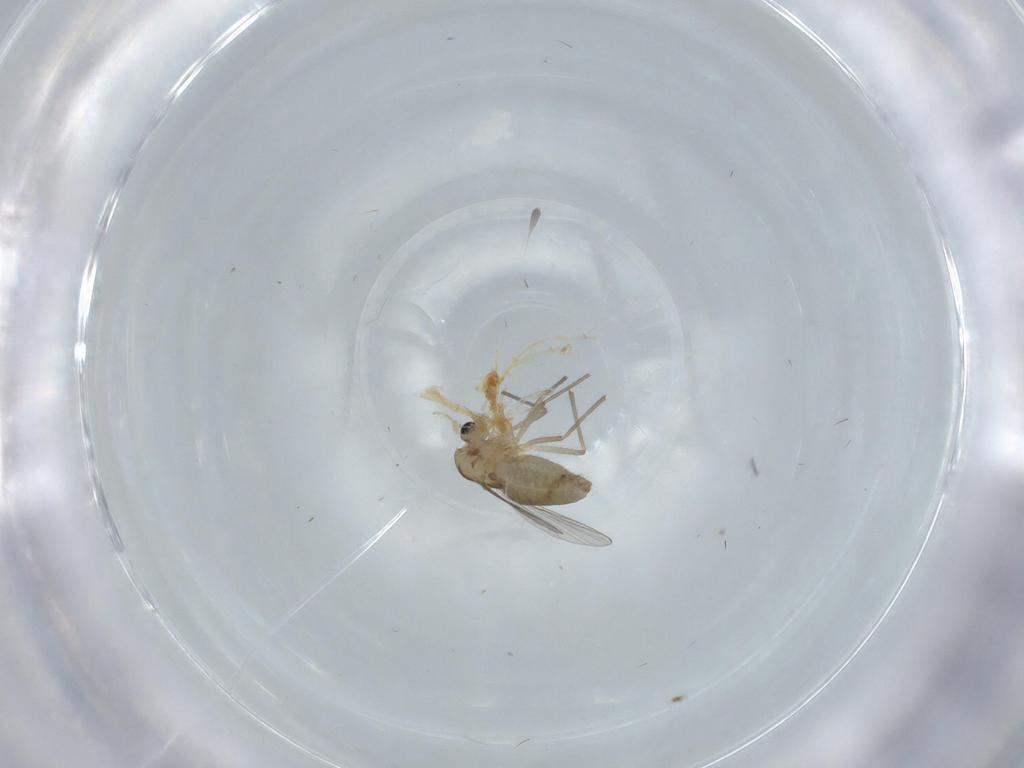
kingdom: Animalia
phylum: Arthropoda
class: Insecta
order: Diptera
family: Chironomidae
